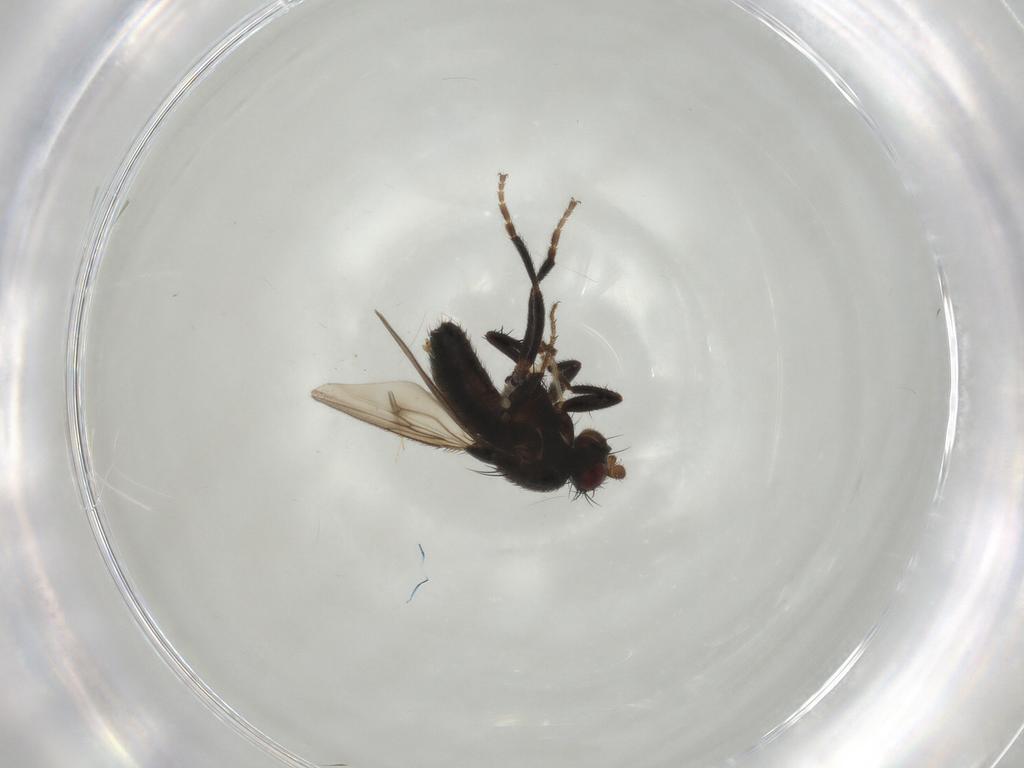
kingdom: Animalia
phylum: Arthropoda
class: Insecta
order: Diptera
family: Sphaeroceridae
